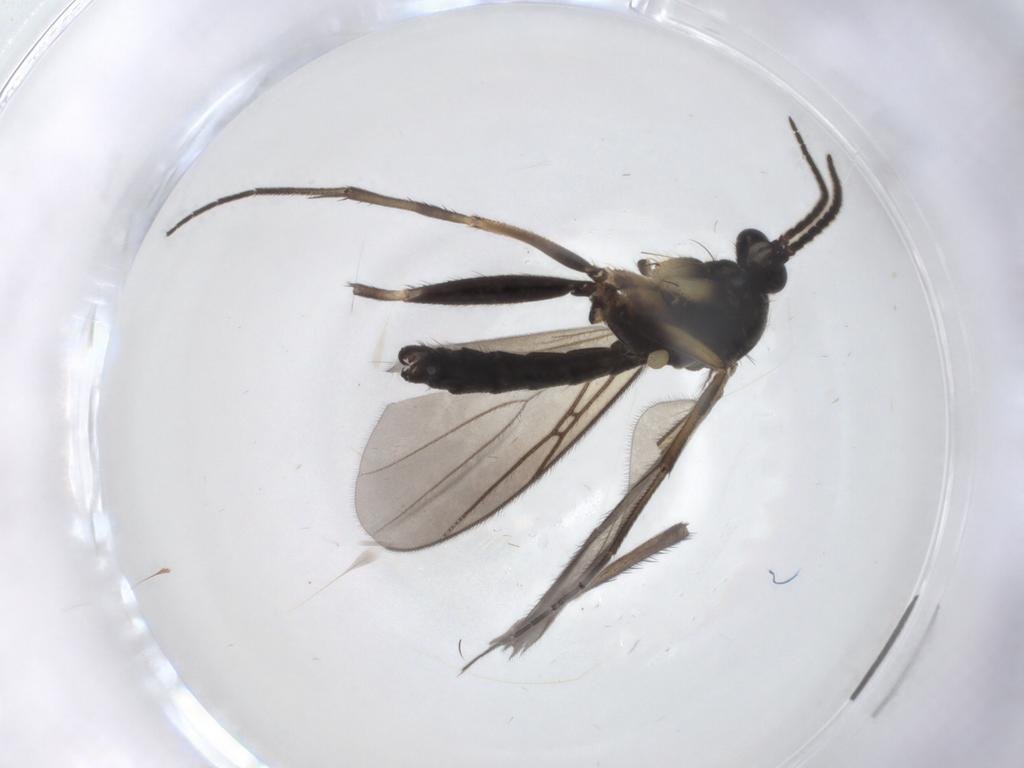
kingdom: Animalia
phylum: Arthropoda
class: Insecta
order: Diptera
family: Mycetophilidae
